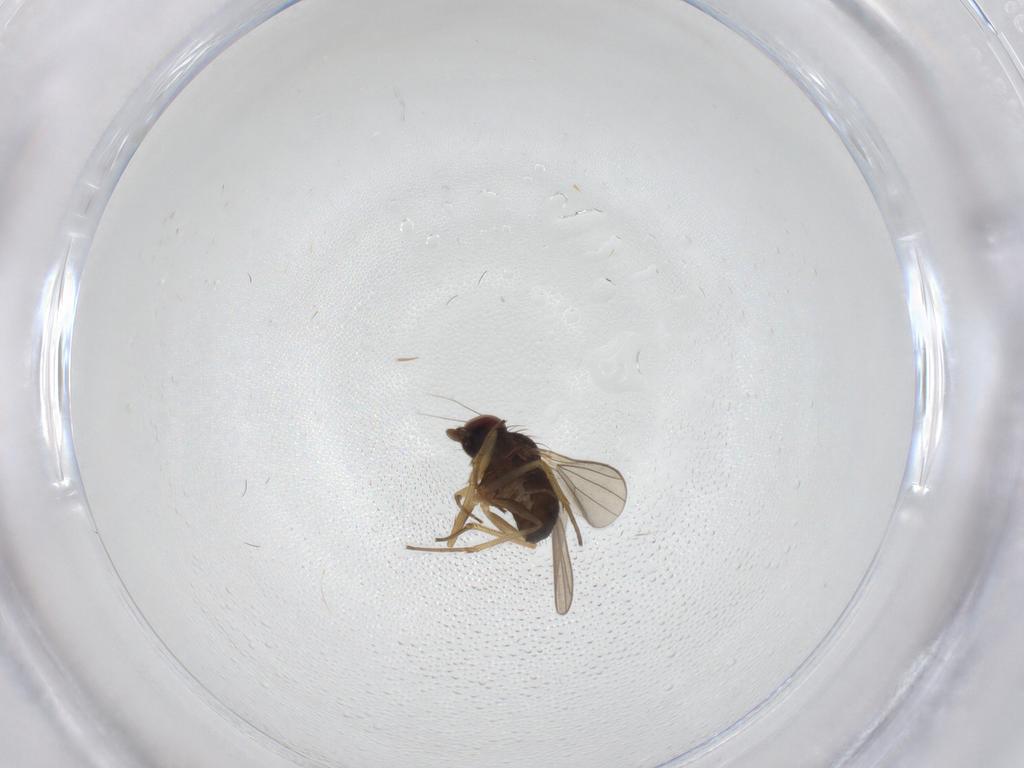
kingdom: Animalia
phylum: Arthropoda
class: Insecta
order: Diptera
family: Dolichopodidae
